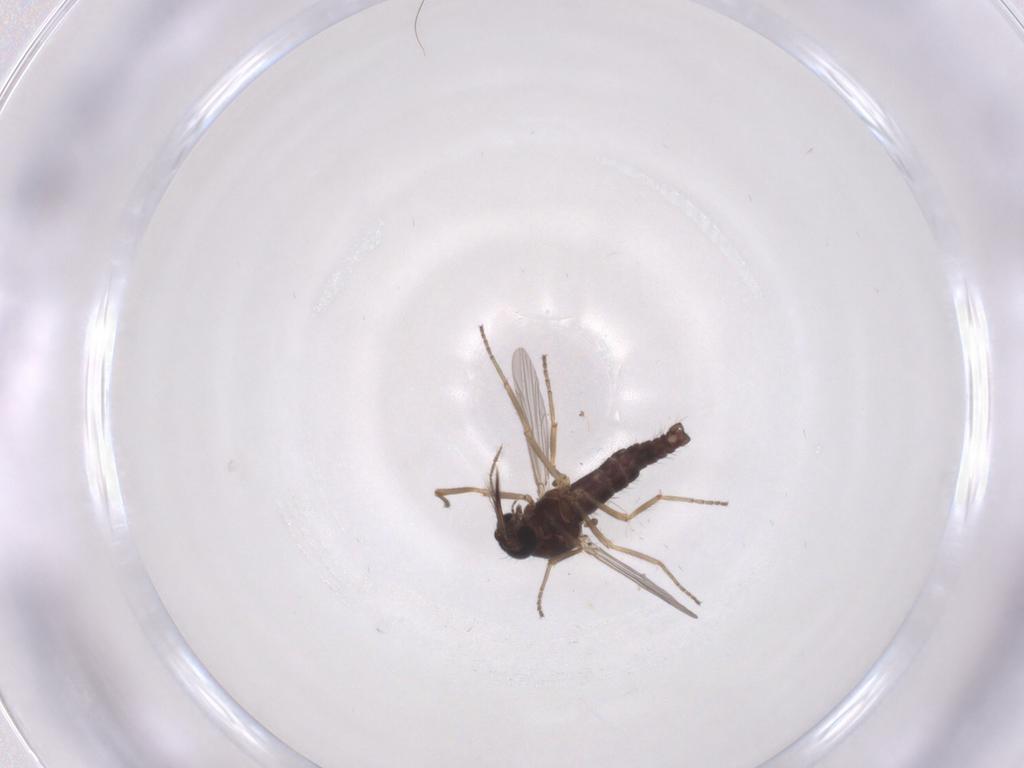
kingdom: Animalia
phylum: Arthropoda
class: Insecta
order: Diptera
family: Ceratopogonidae
